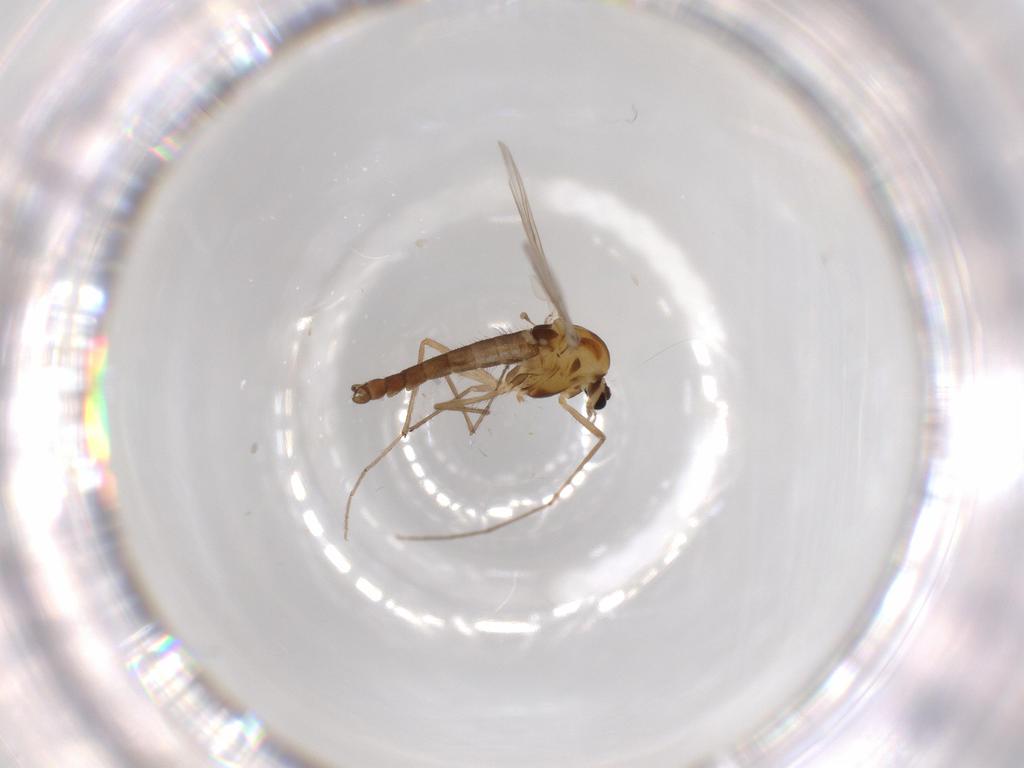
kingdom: Animalia
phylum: Arthropoda
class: Insecta
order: Diptera
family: Chironomidae
